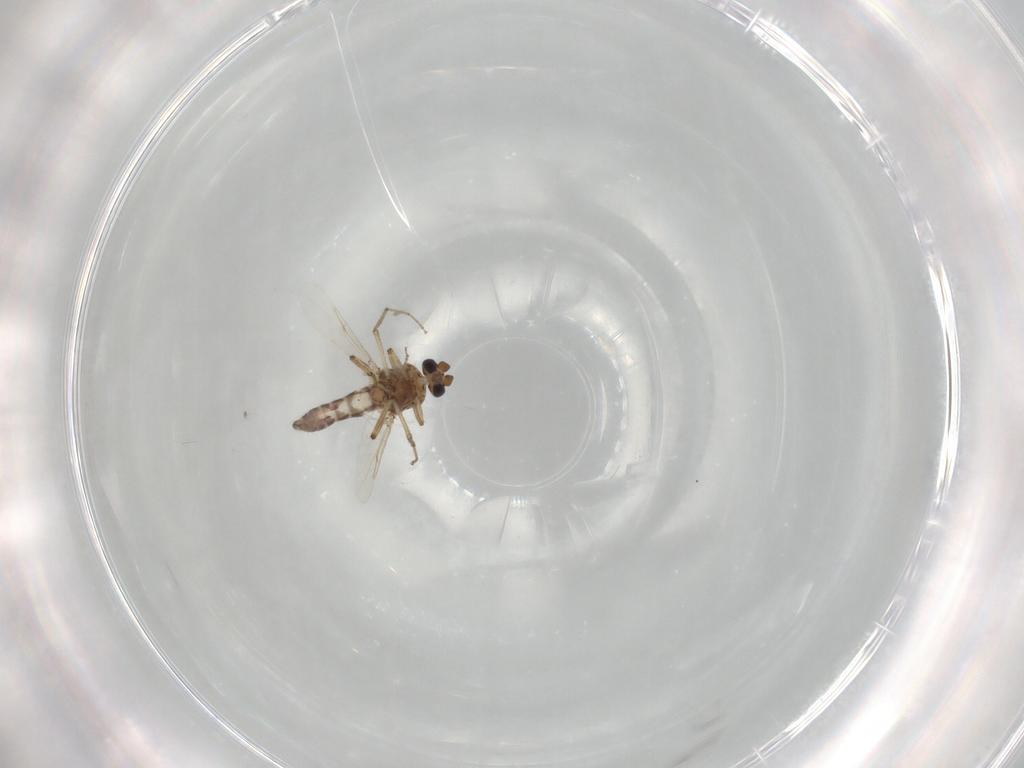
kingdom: Animalia
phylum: Arthropoda
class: Insecta
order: Diptera
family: Ceratopogonidae
